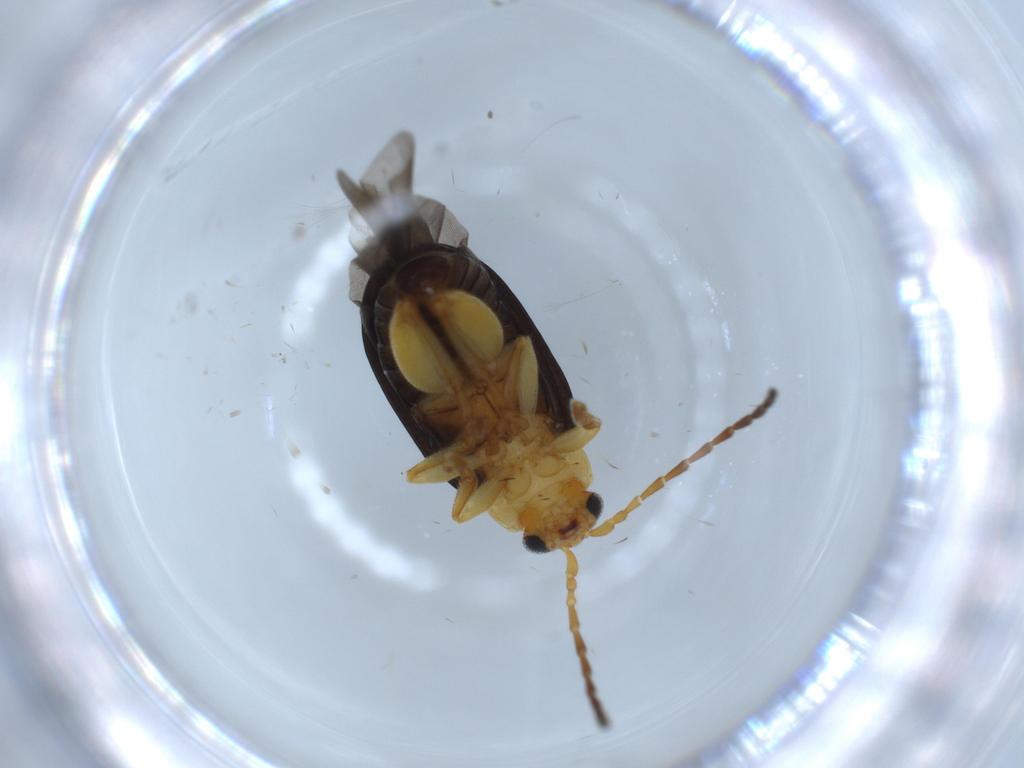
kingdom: Animalia
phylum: Arthropoda
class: Insecta
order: Coleoptera
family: Chrysomelidae
